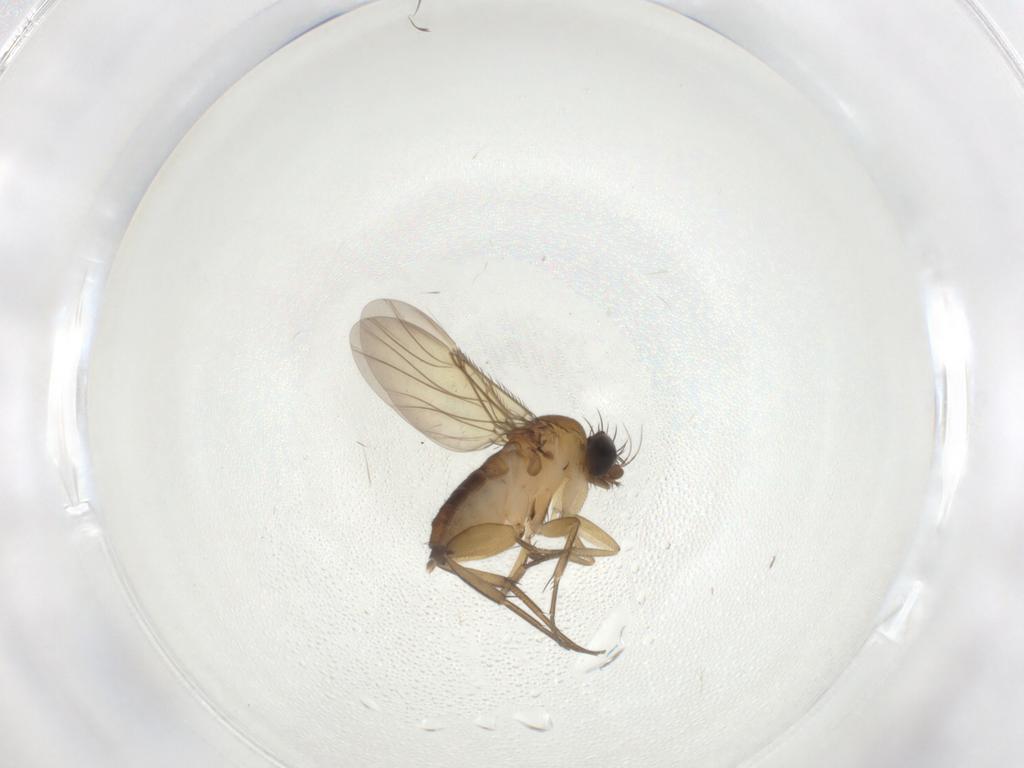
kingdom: Animalia
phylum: Arthropoda
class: Insecta
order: Diptera
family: Phoridae
